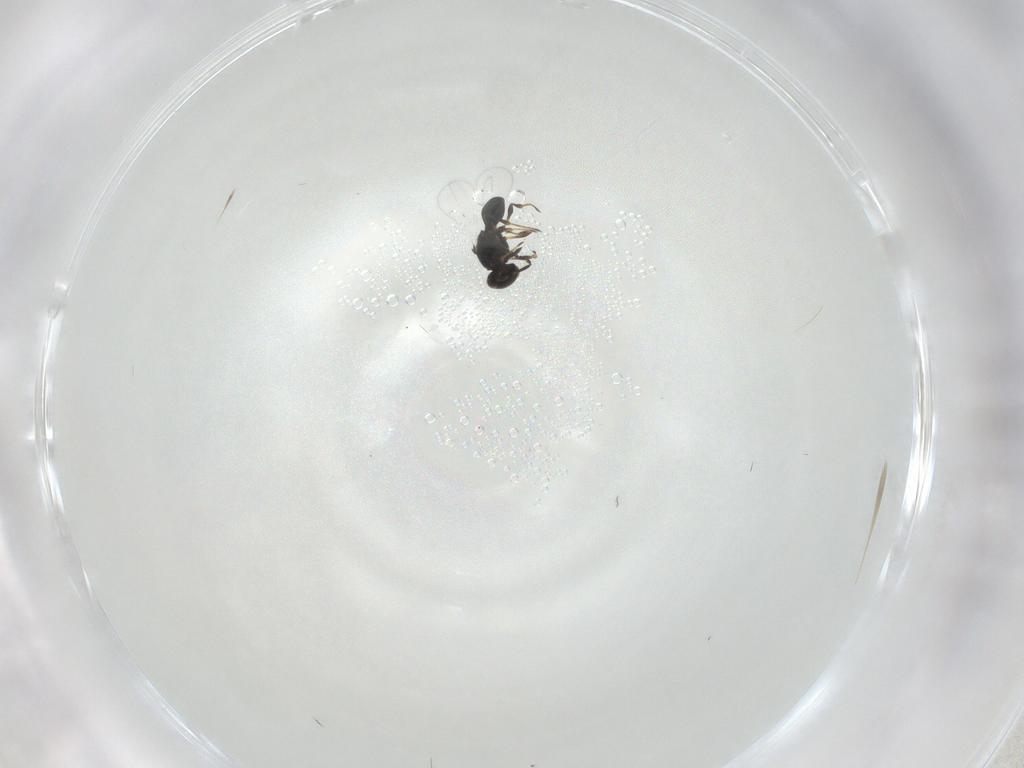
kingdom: Animalia
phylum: Arthropoda
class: Insecta
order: Hymenoptera
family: Platygastridae
